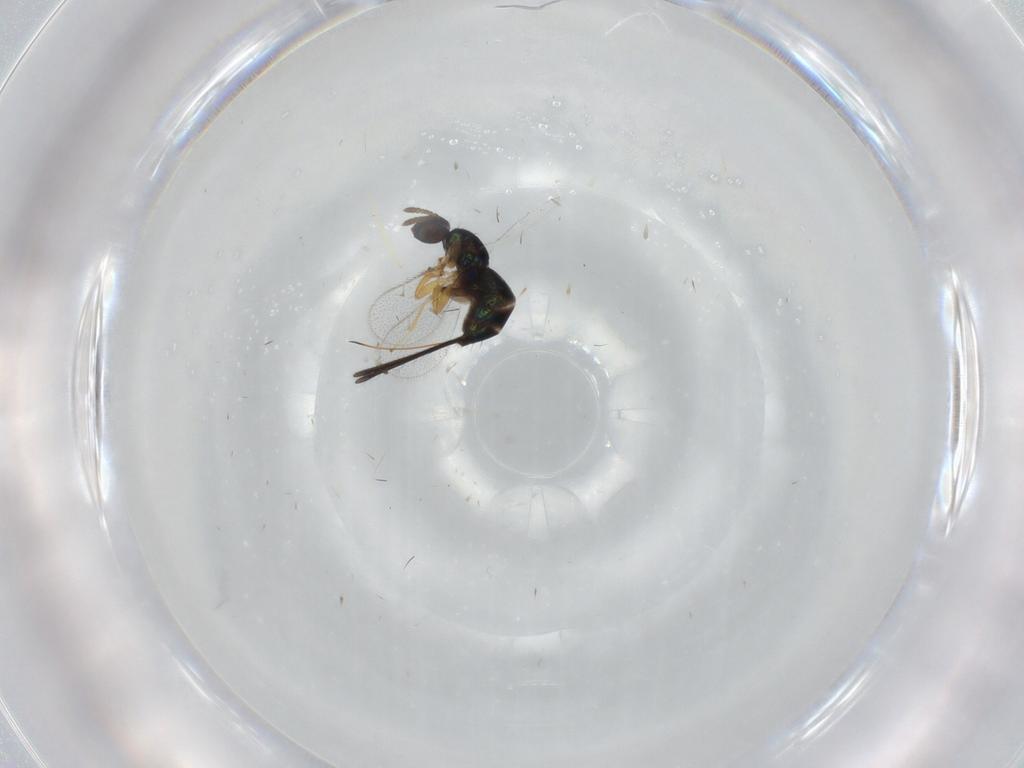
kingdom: Animalia
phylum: Arthropoda
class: Insecta
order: Hymenoptera
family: Torymidae
